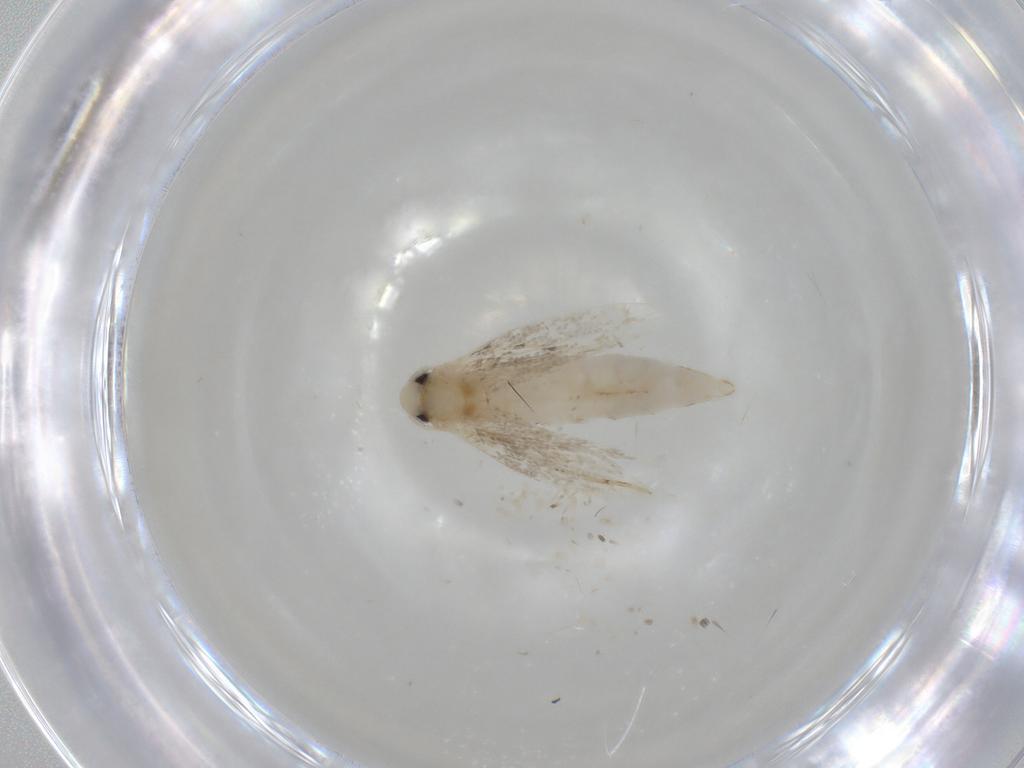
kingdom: Animalia
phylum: Arthropoda
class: Insecta
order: Lepidoptera
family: Gracillariidae
